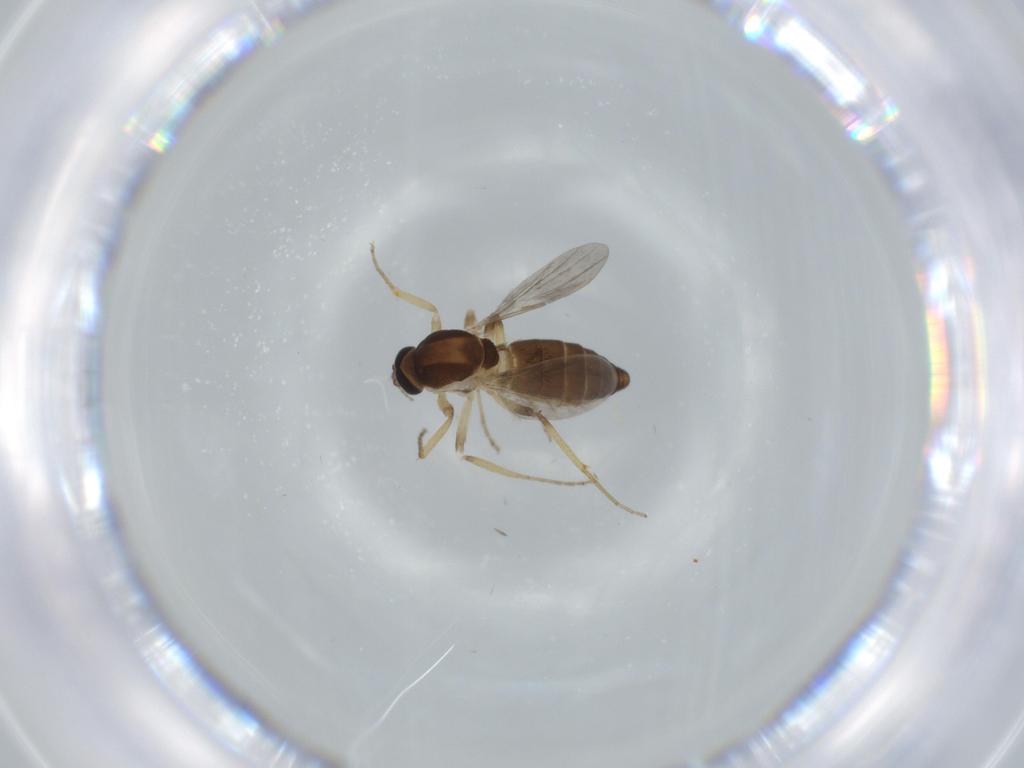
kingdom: Animalia
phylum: Arthropoda
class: Insecta
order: Diptera
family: Ceratopogonidae
